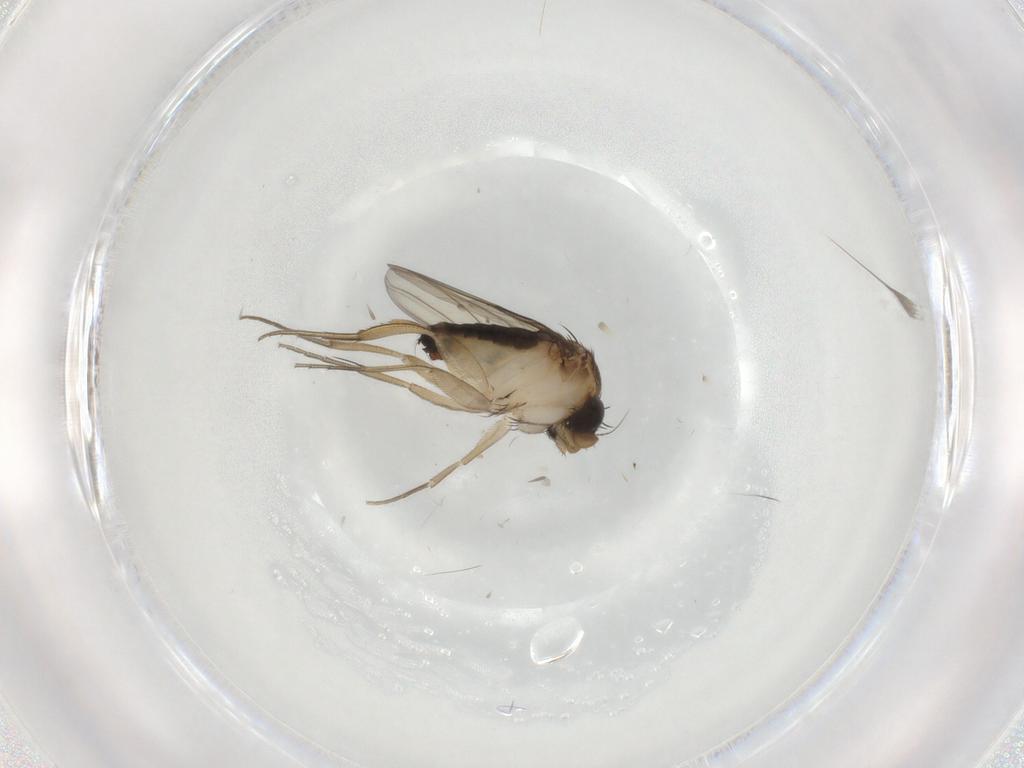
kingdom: Animalia
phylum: Arthropoda
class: Insecta
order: Diptera
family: Phoridae
